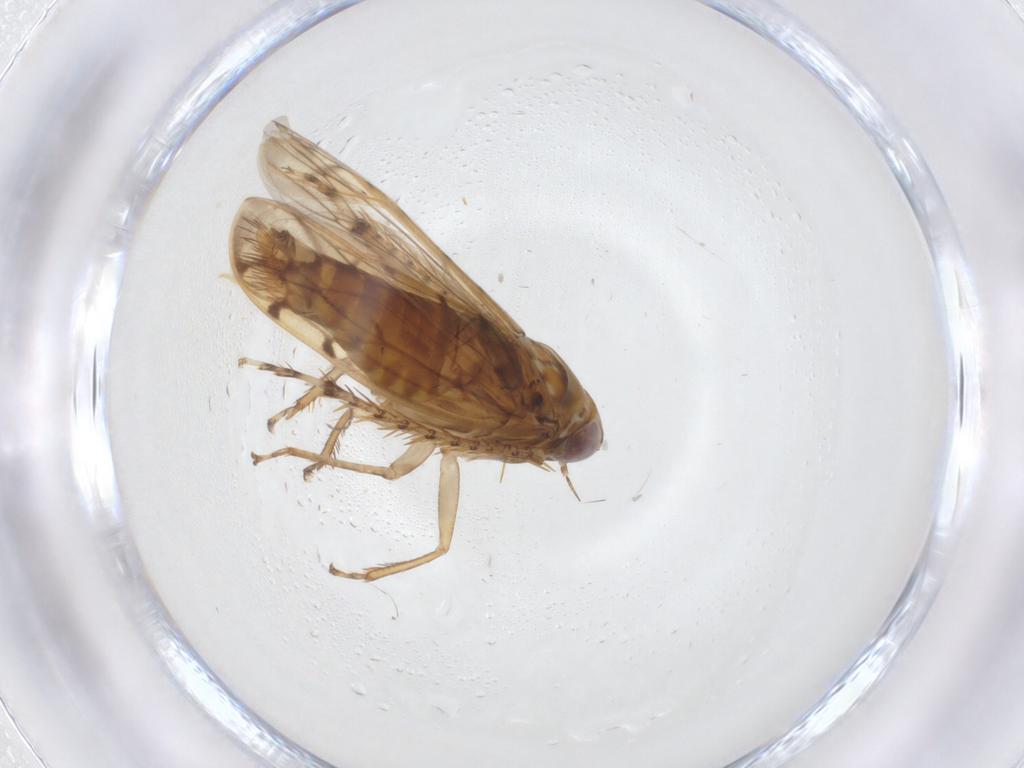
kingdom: Animalia
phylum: Arthropoda
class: Insecta
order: Hemiptera
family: Cicadellidae
